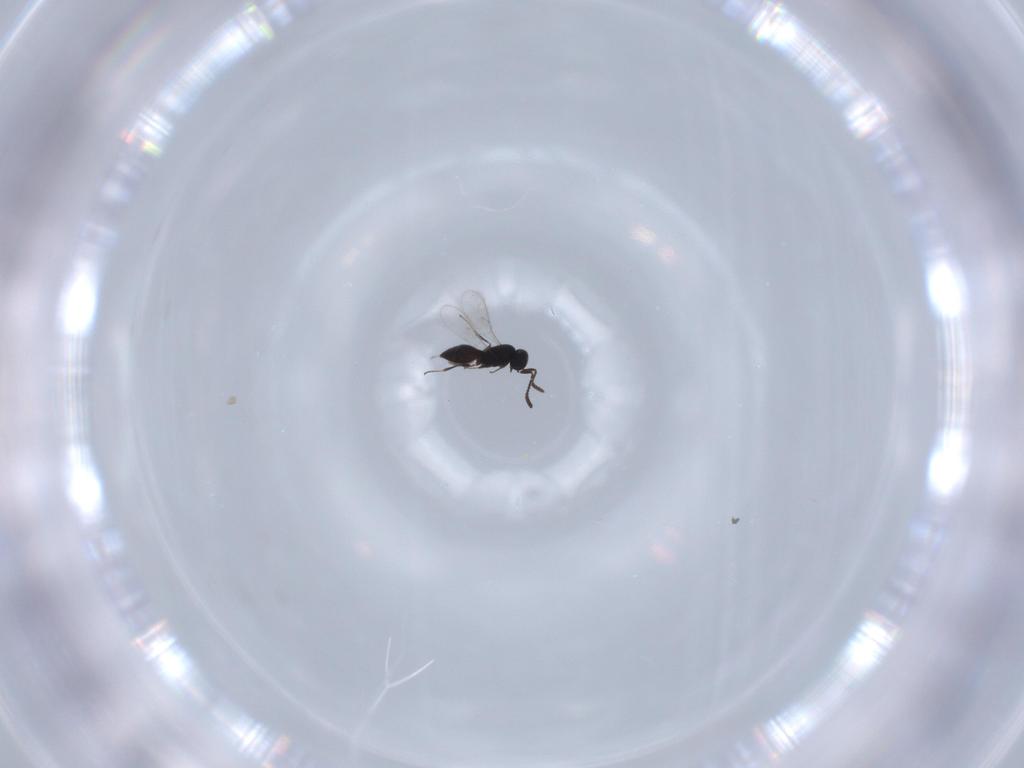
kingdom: Animalia
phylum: Arthropoda
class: Insecta
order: Hymenoptera
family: Scelionidae
